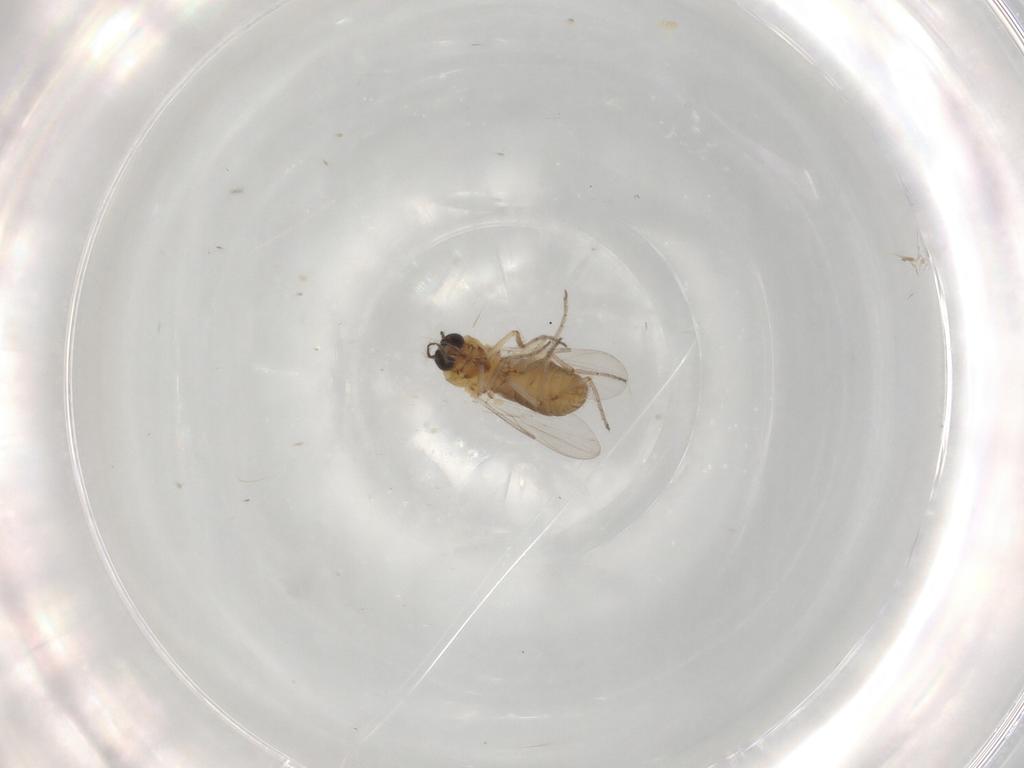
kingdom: Animalia
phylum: Arthropoda
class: Insecta
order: Diptera
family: Ceratopogonidae
